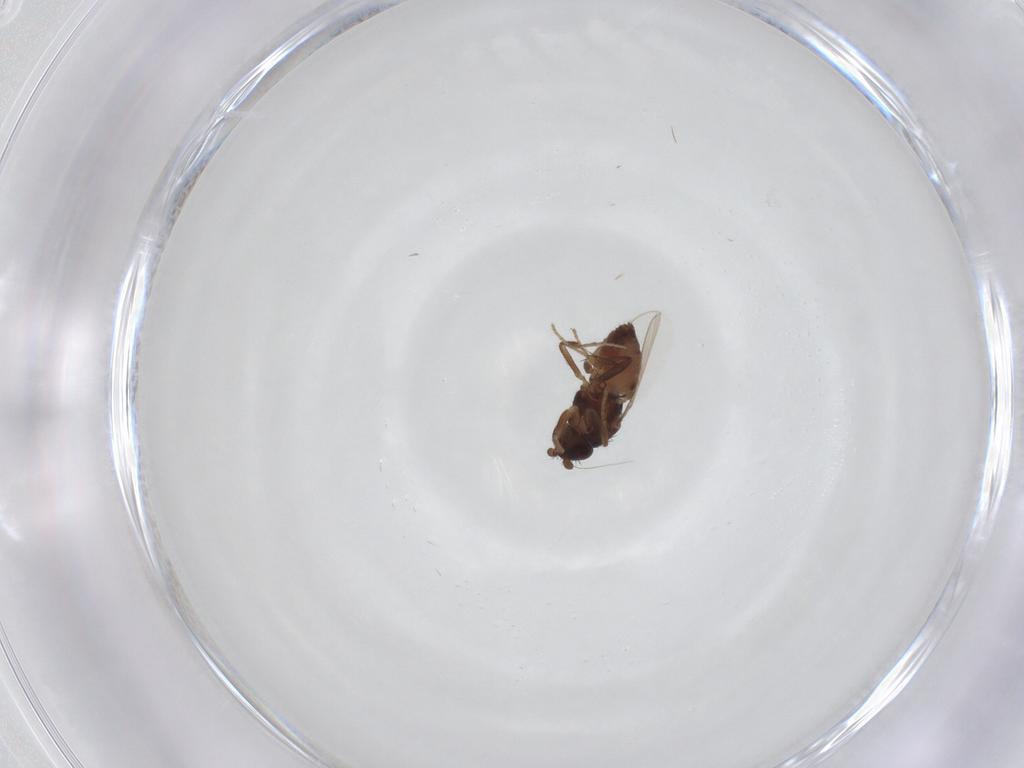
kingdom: Animalia
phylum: Arthropoda
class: Insecta
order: Diptera
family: Sphaeroceridae
